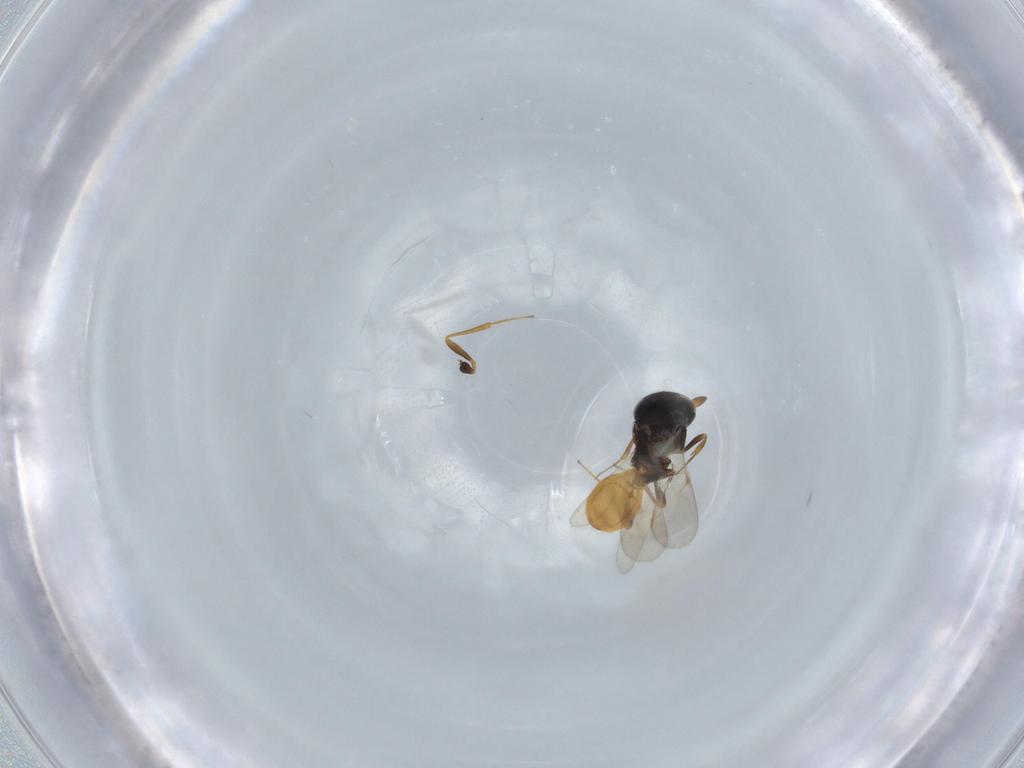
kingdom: Animalia
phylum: Arthropoda
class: Insecta
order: Hymenoptera
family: Scelionidae
